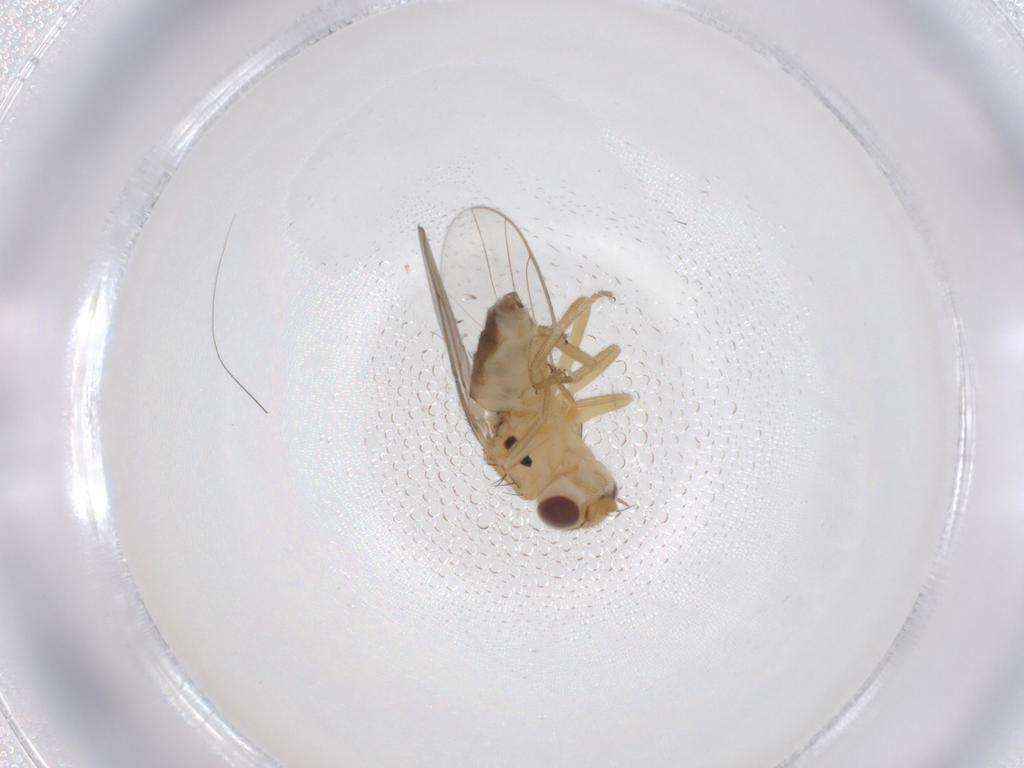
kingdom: Animalia
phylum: Arthropoda
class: Insecta
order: Diptera
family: Chloropidae
